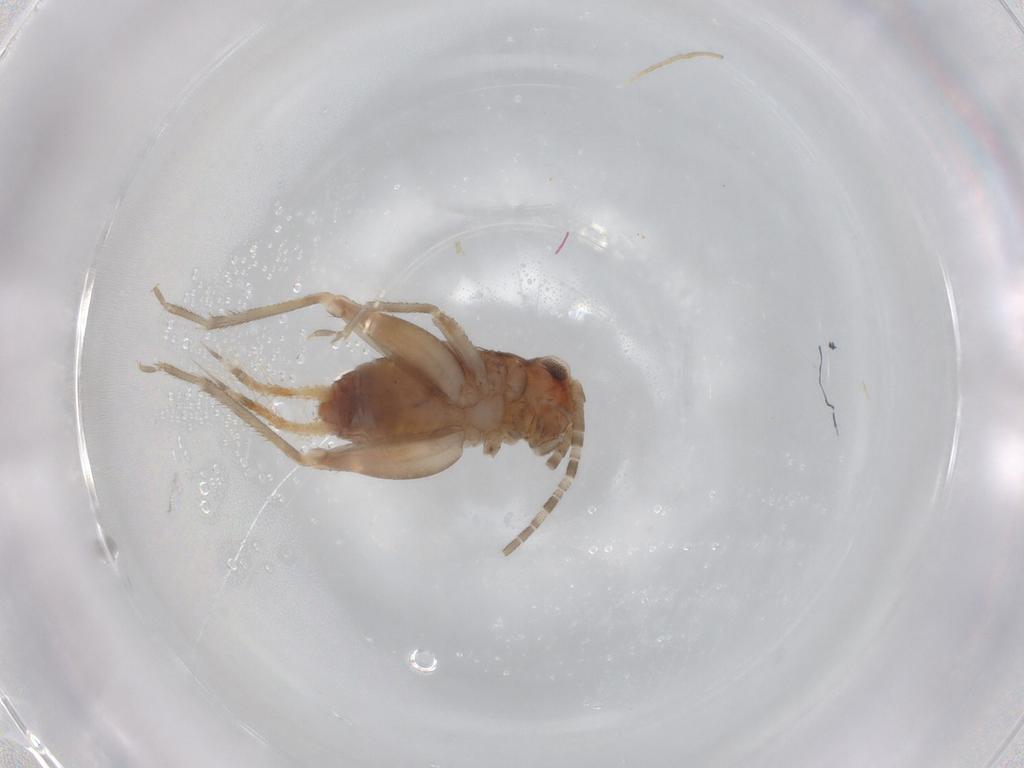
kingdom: Animalia
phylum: Arthropoda
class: Insecta
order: Orthoptera
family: Gryllidae
